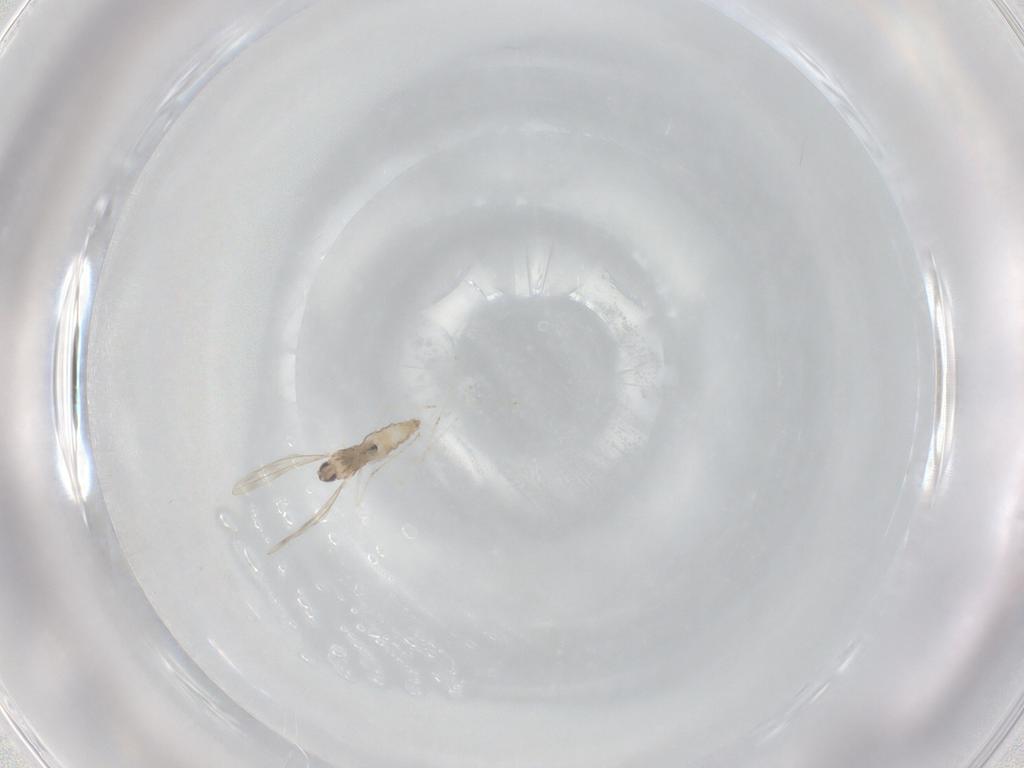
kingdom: Animalia
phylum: Arthropoda
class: Insecta
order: Diptera
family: Cecidomyiidae
